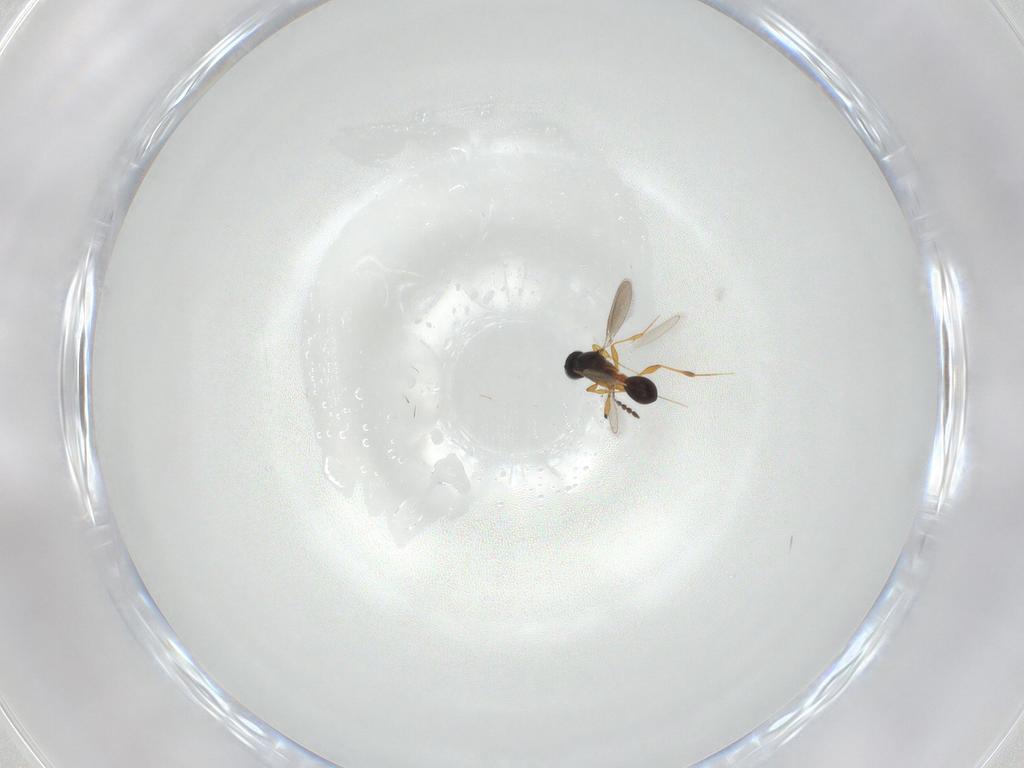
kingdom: Animalia
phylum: Arthropoda
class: Insecta
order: Hymenoptera
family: Platygastridae
